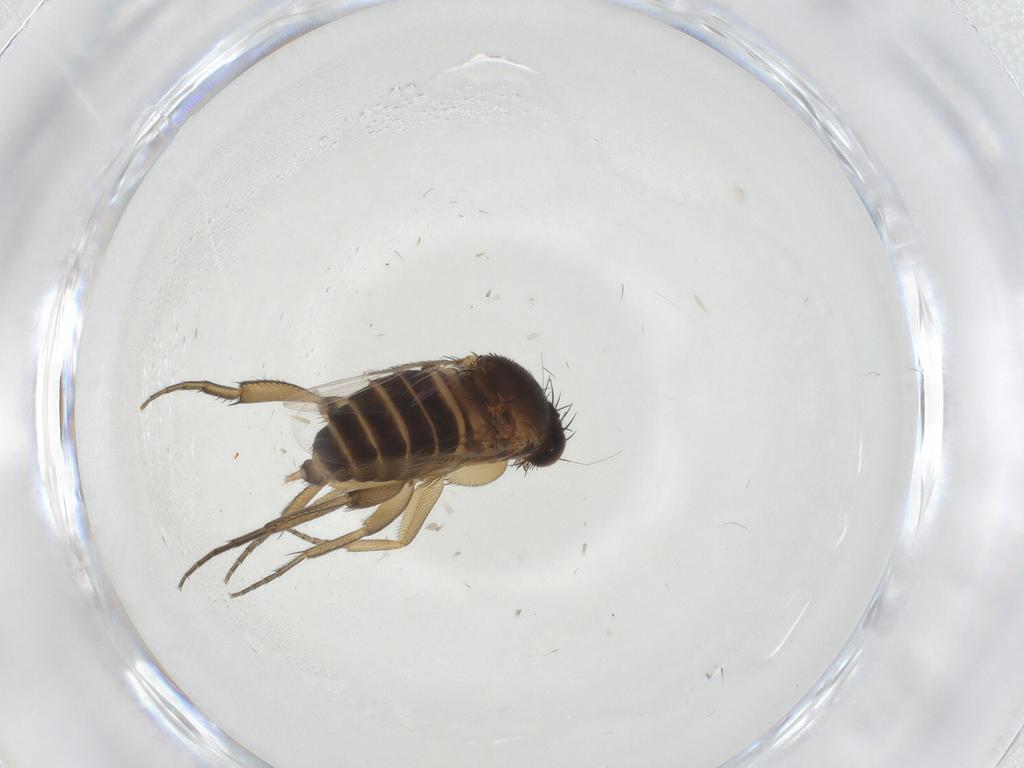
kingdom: Animalia
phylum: Arthropoda
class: Insecta
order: Diptera
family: Phoridae
